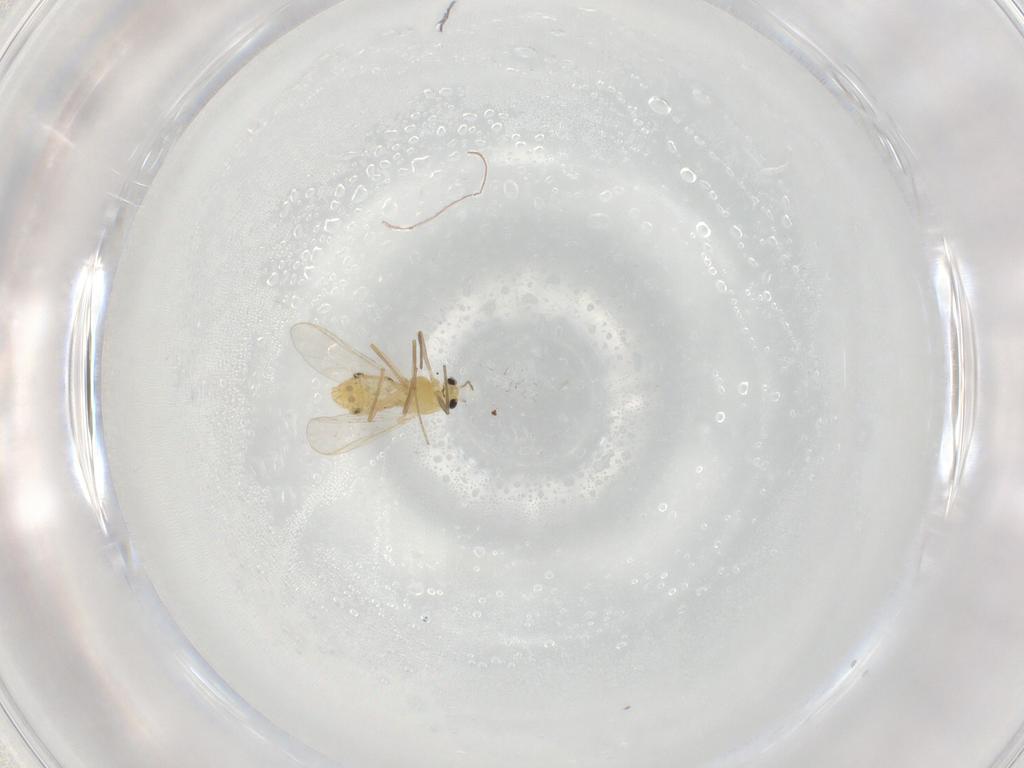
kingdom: Animalia
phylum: Arthropoda
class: Insecta
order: Diptera
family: Chironomidae
